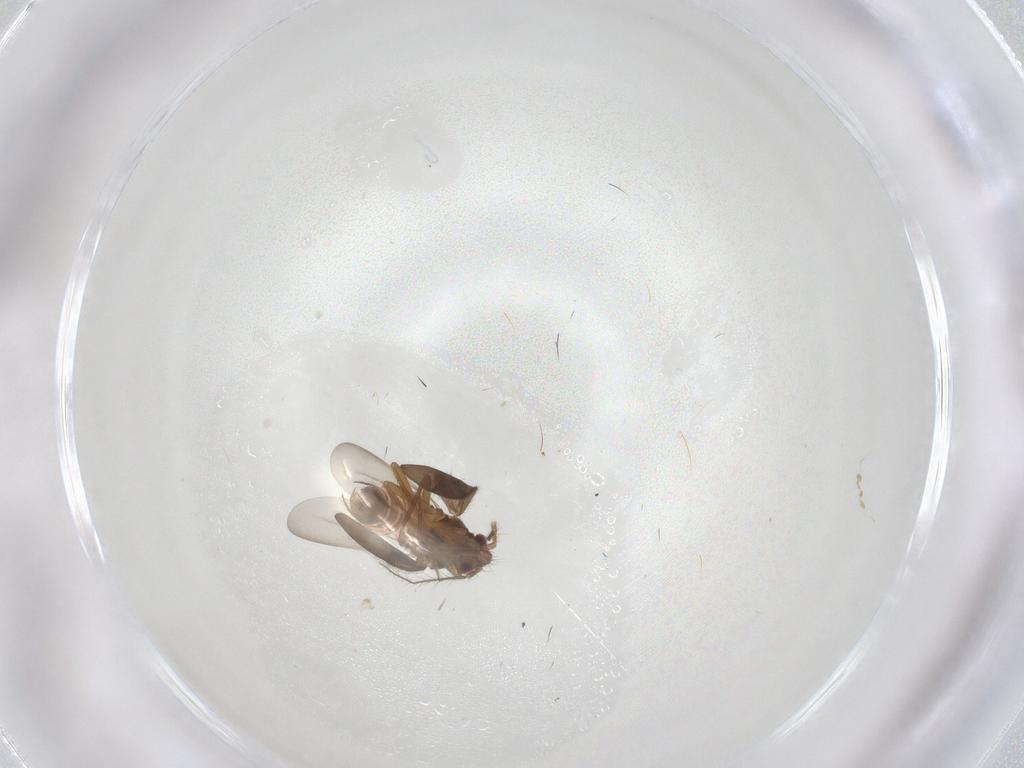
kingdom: Animalia
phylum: Arthropoda
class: Insecta
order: Hemiptera
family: Ceratocombidae
